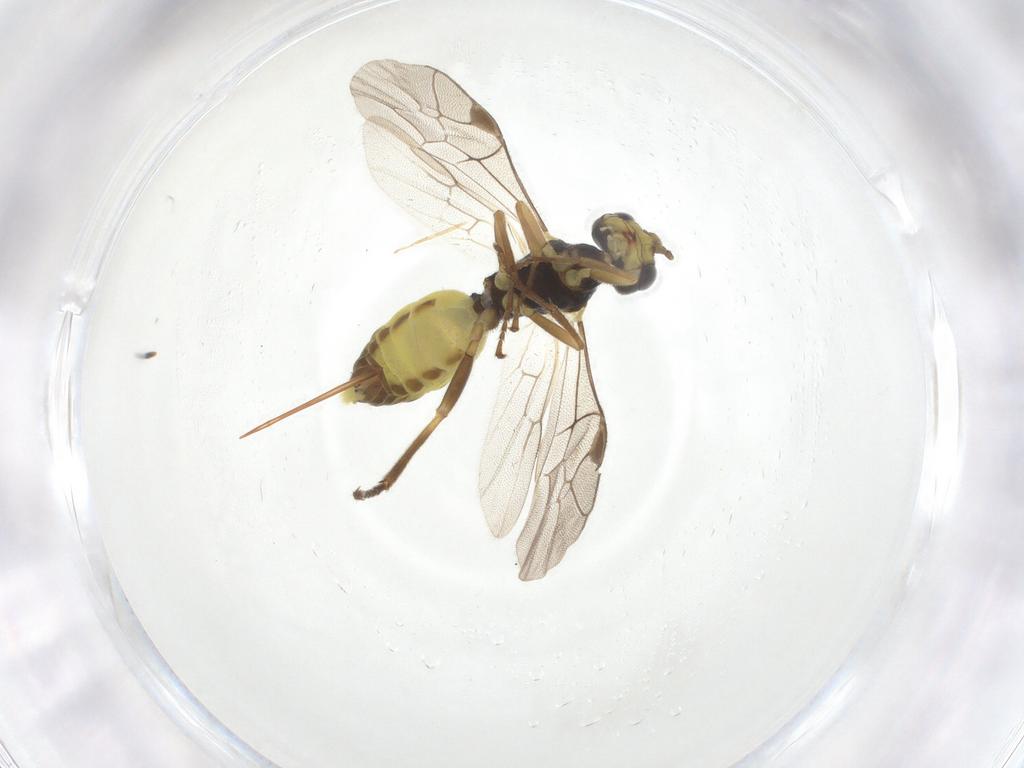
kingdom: Animalia
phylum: Arthropoda
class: Insecta
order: Hymenoptera
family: Ichneumonidae
